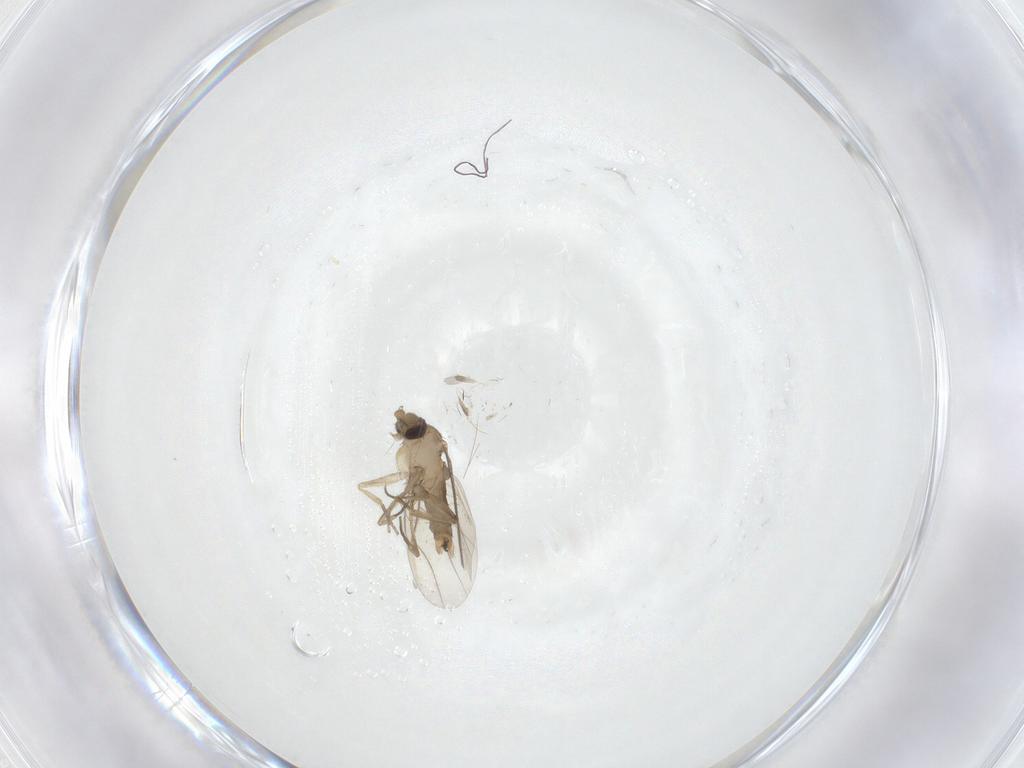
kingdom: Animalia
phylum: Arthropoda
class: Insecta
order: Diptera
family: Phoridae
